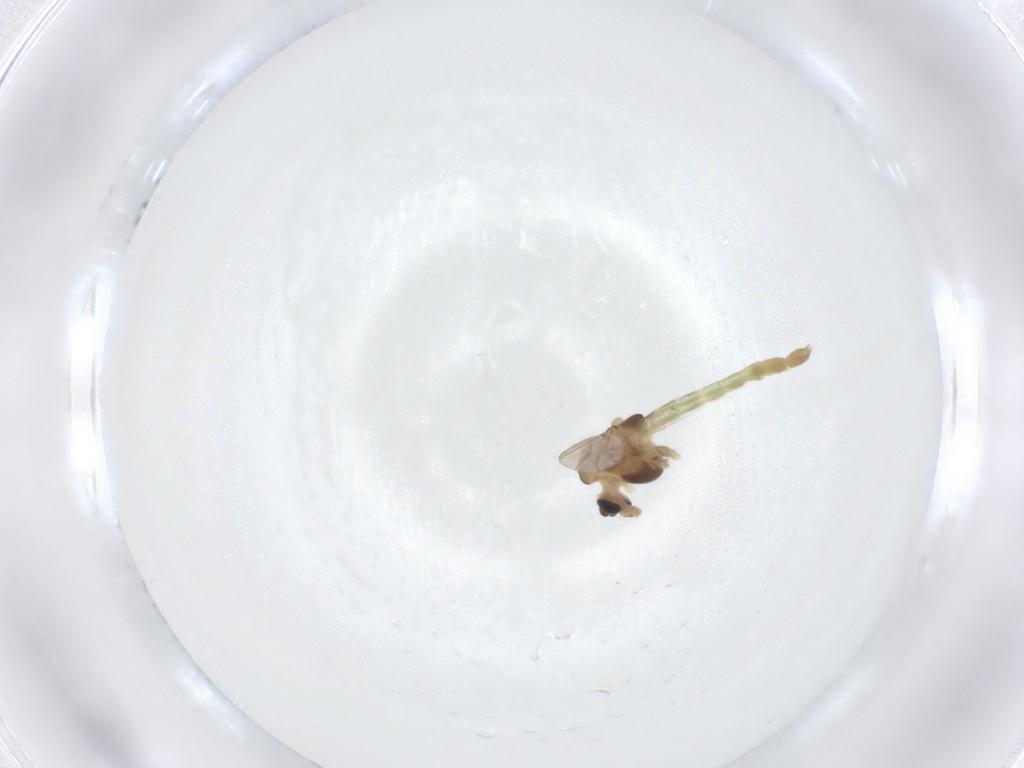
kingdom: Animalia
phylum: Arthropoda
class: Insecta
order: Diptera
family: Chironomidae
